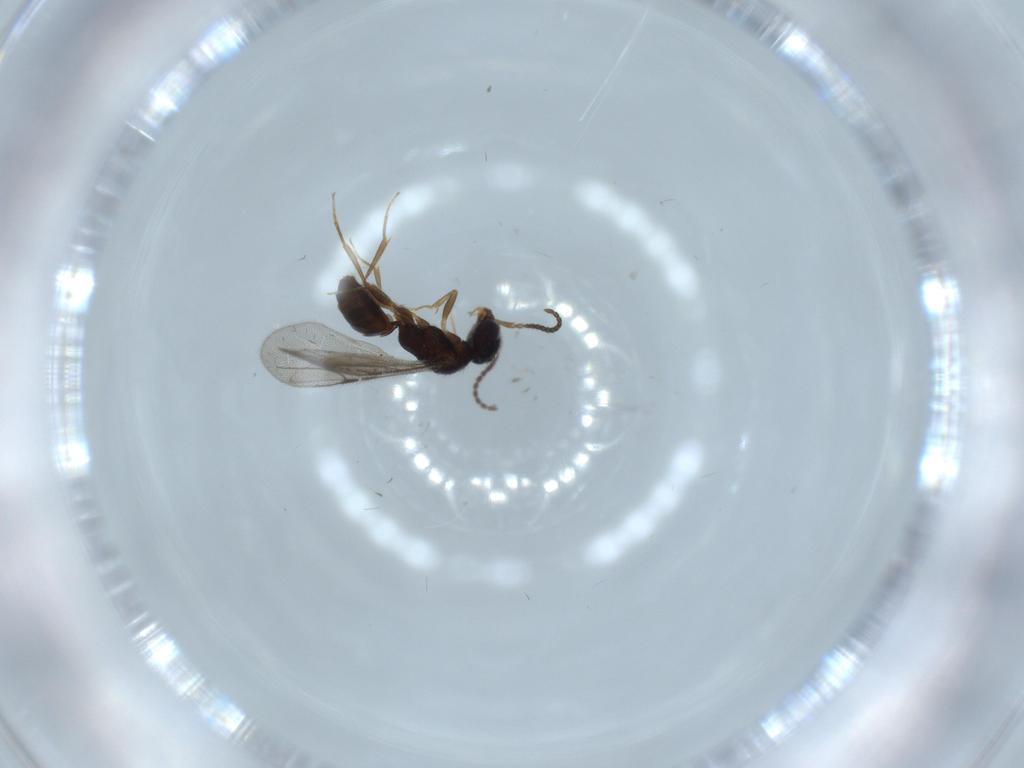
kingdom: Animalia
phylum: Arthropoda
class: Insecta
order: Hymenoptera
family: Bethylidae
